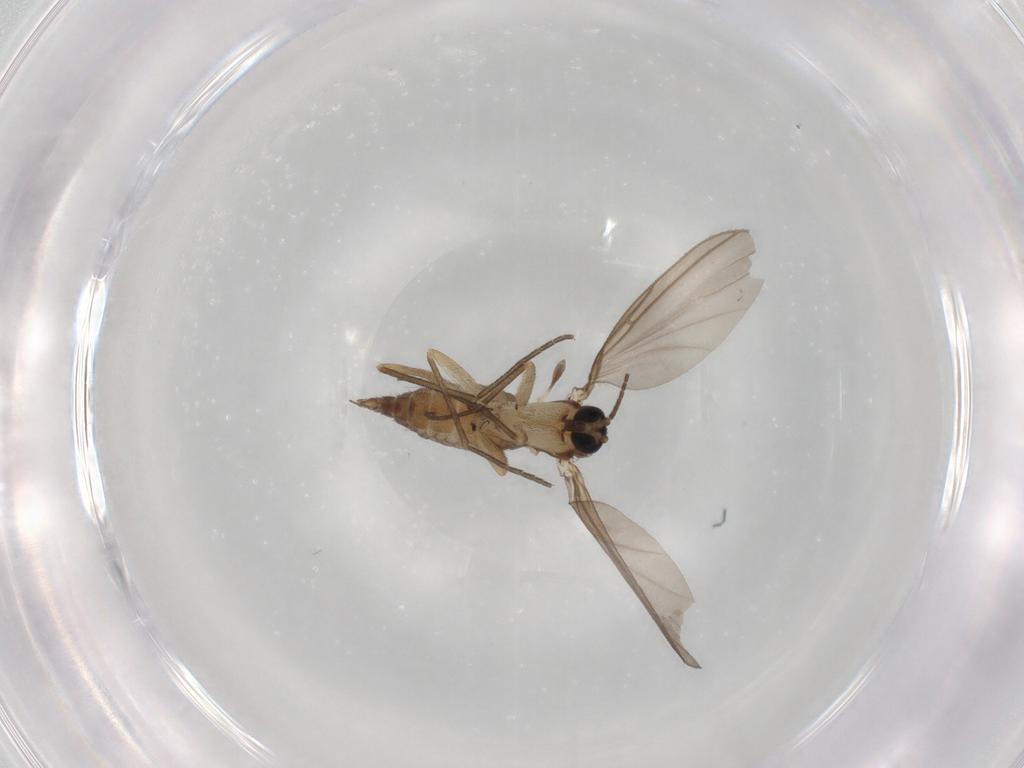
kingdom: Animalia
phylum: Arthropoda
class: Insecta
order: Diptera
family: Sciaridae
